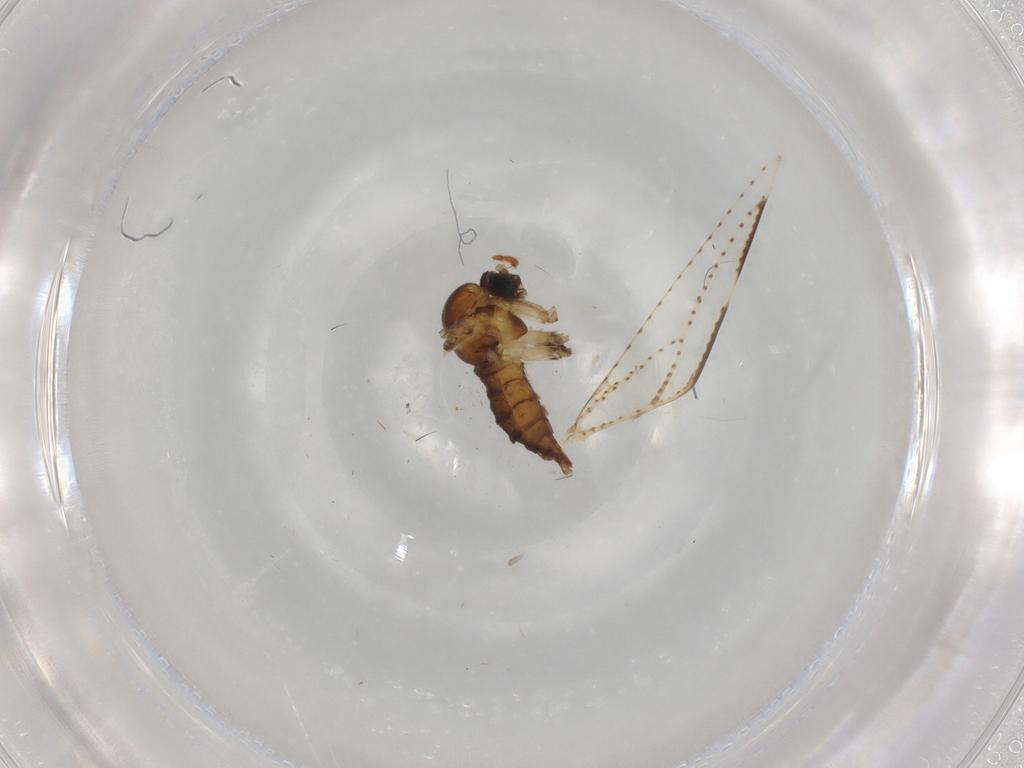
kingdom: Animalia
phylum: Arthropoda
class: Insecta
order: Diptera
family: Sciaridae
